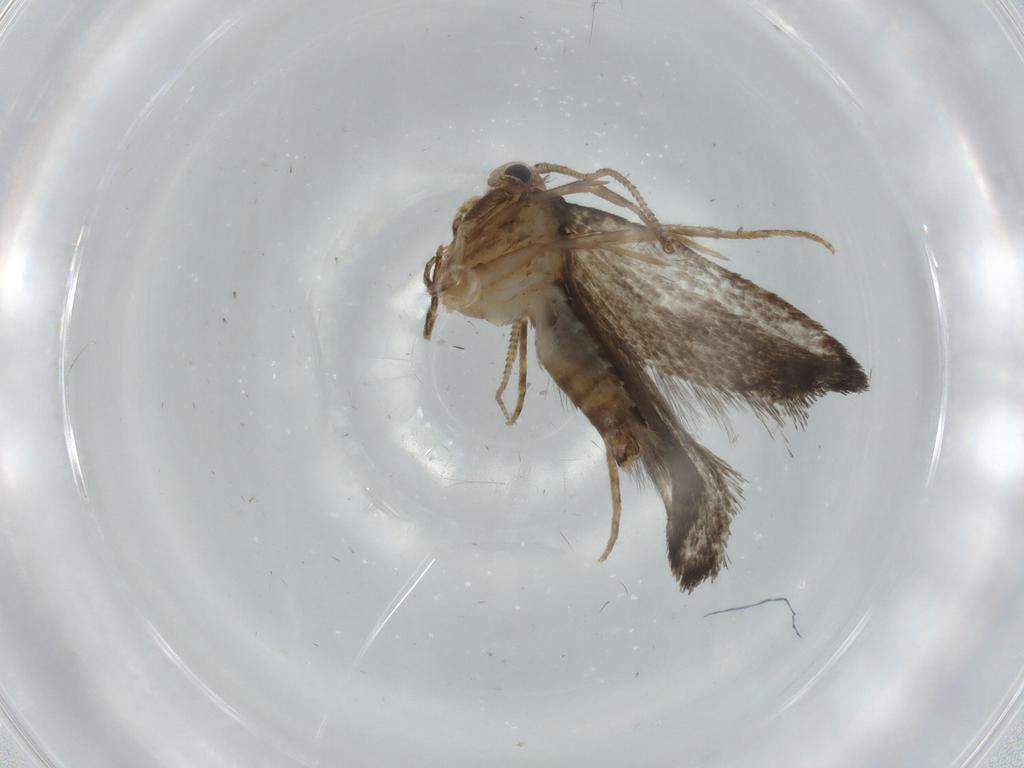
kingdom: Animalia
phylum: Arthropoda
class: Insecta
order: Lepidoptera
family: Tineidae
